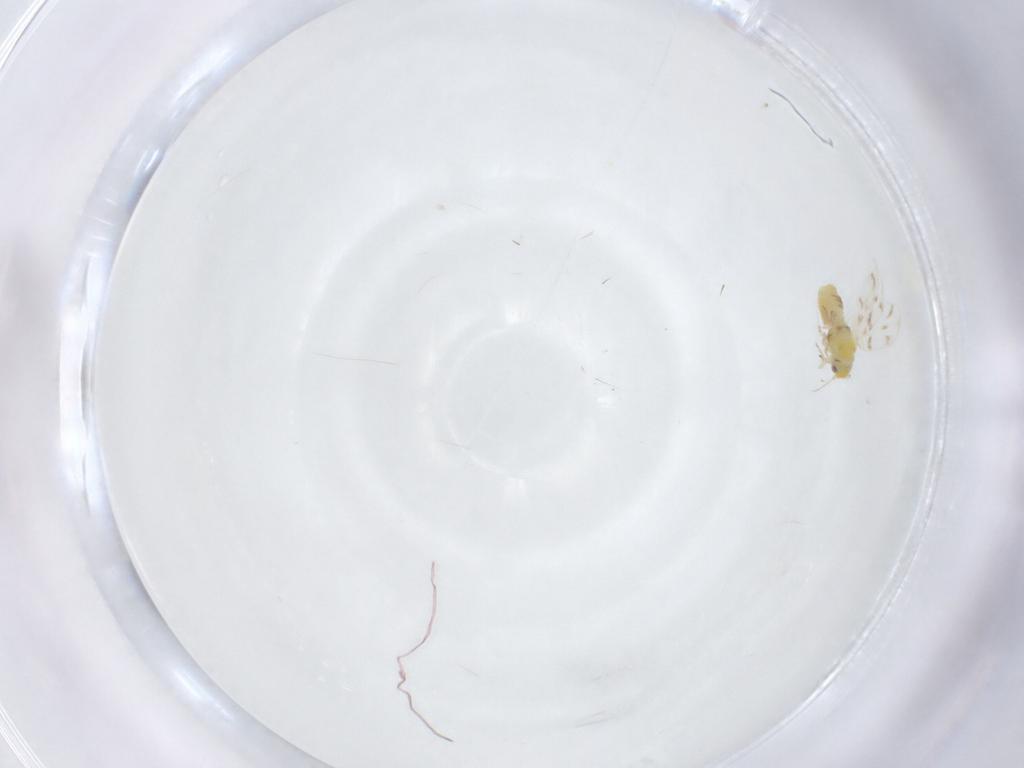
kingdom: Animalia
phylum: Arthropoda
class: Insecta
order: Hemiptera
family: Aleyrodidae
